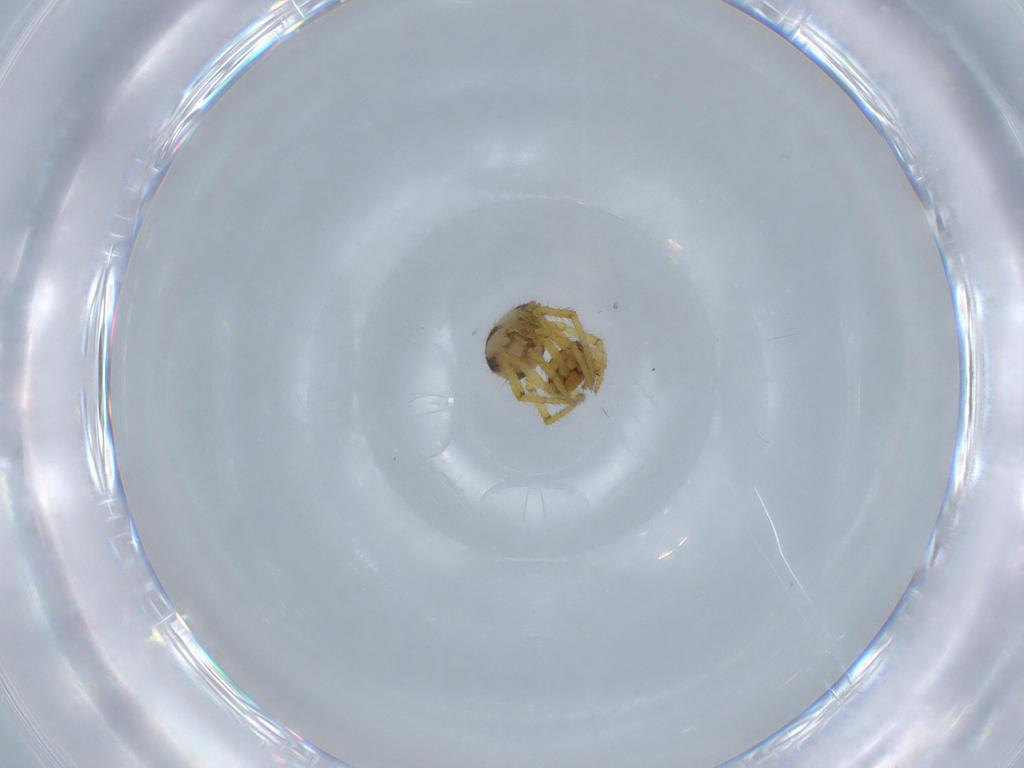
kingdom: Animalia
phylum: Arthropoda
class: Arachnida
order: Araneae
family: Theridiidae
